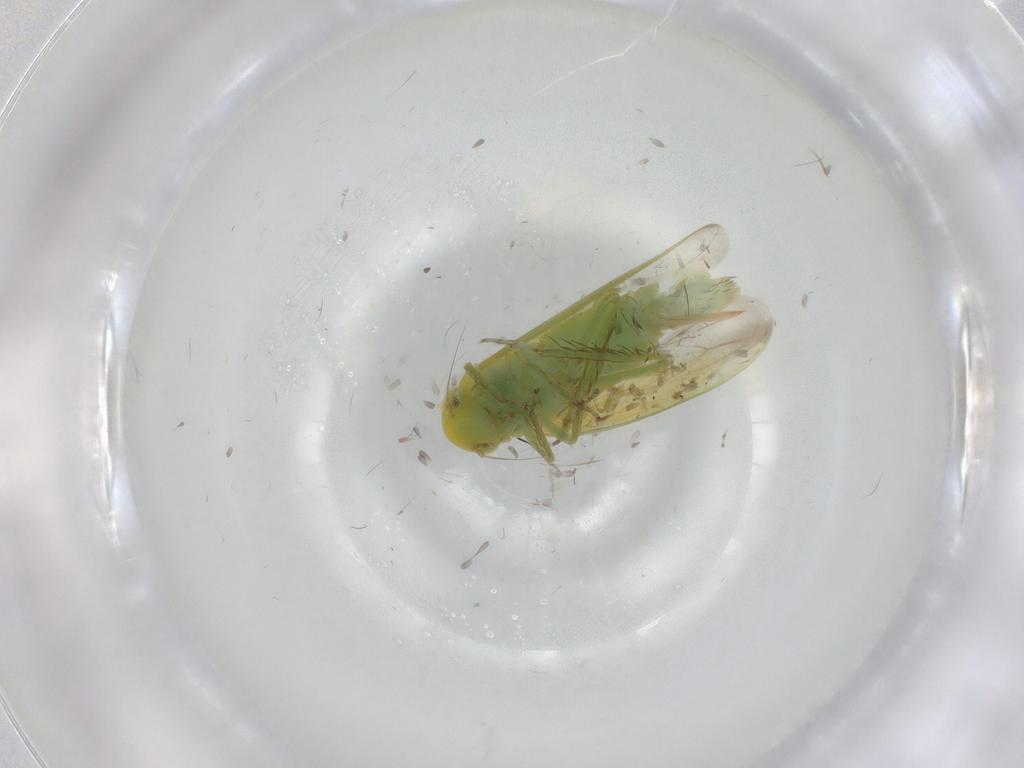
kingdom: Animalia
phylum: Arthropoda
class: Insecta
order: Hemiptera
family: Cicadellidae
